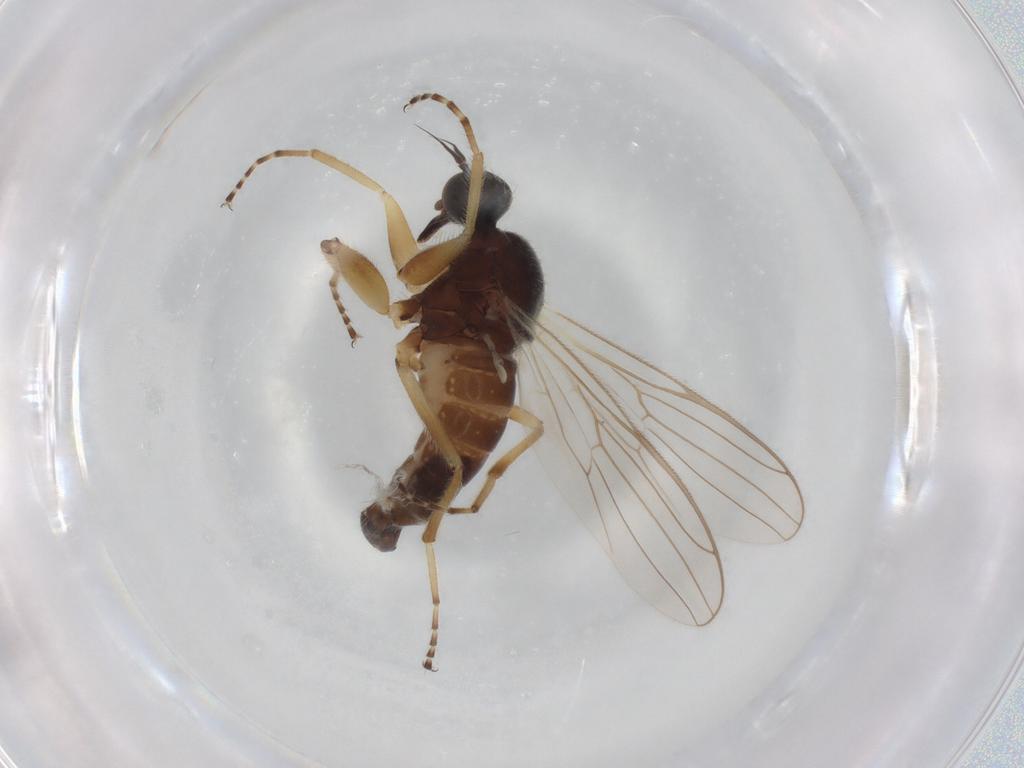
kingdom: Animalia
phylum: Arthropoda
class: Insecta
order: Diptera
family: Hybotidae
